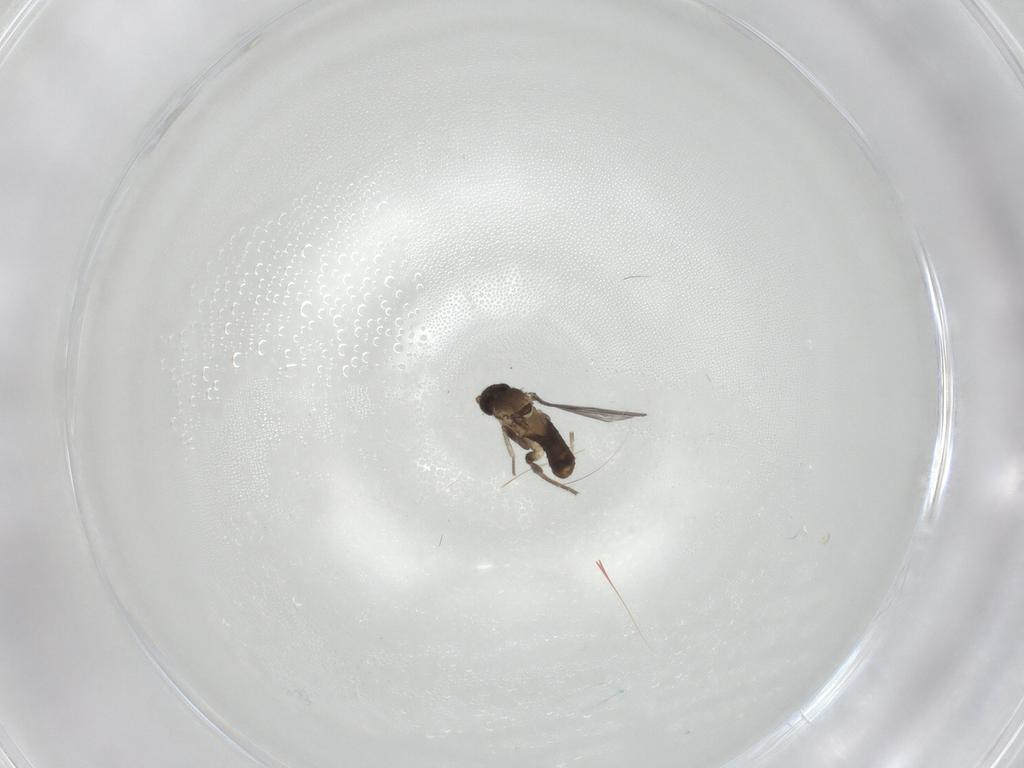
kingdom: Animalia
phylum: Arthropoda
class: Insecta
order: Diptera
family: Phoridae
